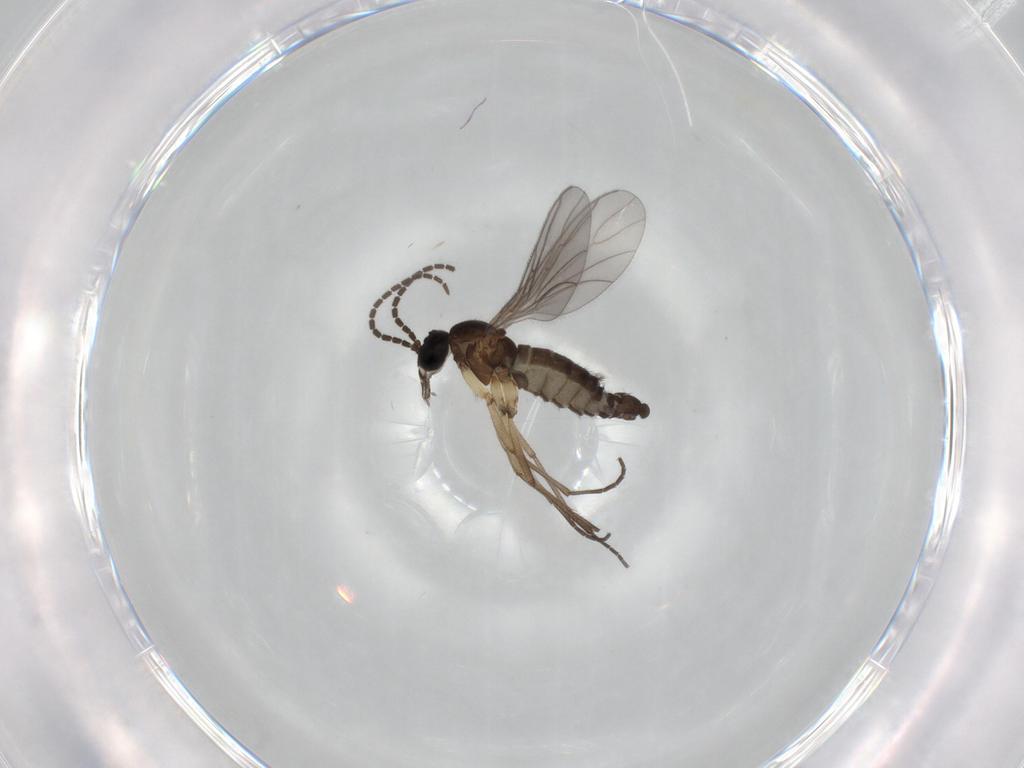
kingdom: Animalia
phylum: Arthropoda
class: Insecta
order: Diptera
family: Sciaridae
